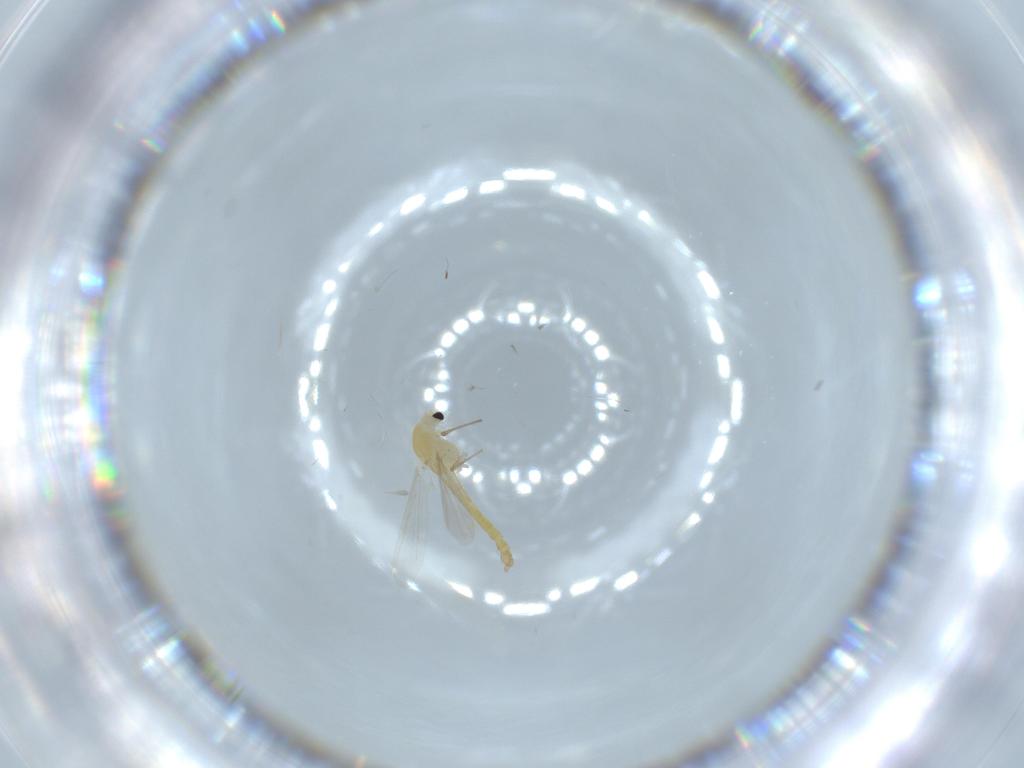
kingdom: Animalia
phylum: Arthropoda
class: Insecta
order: Diptera
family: Chironomidae
